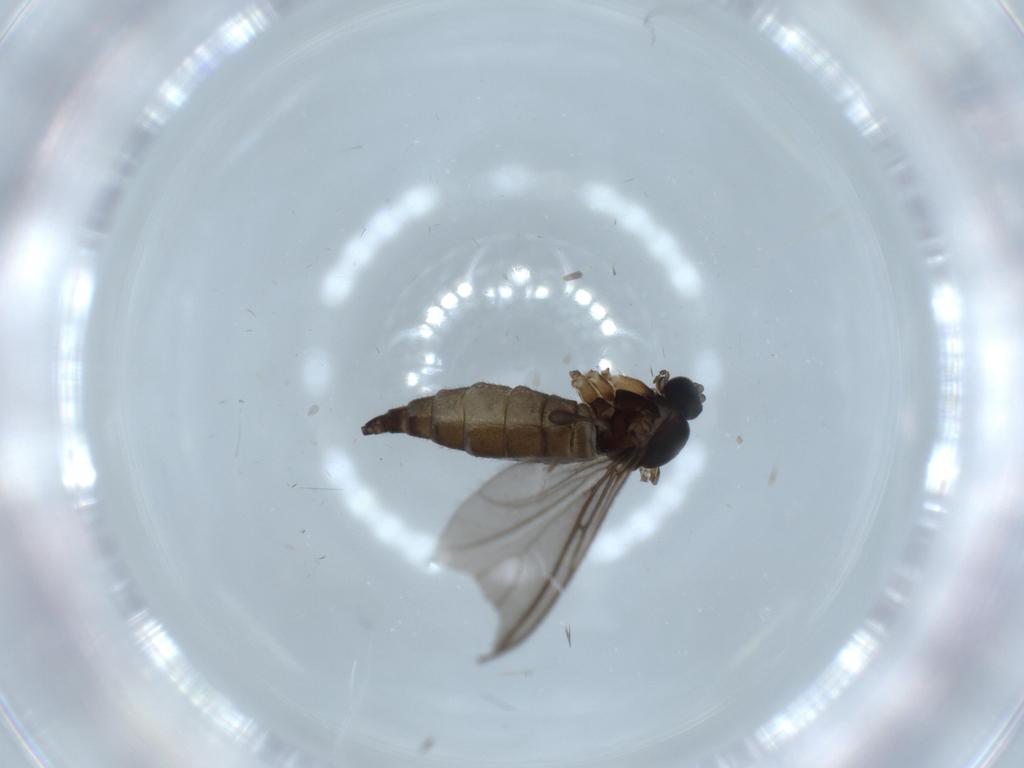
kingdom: Animalia
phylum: Arthropoda
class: Insecta
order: Diptera
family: Sciaridae
